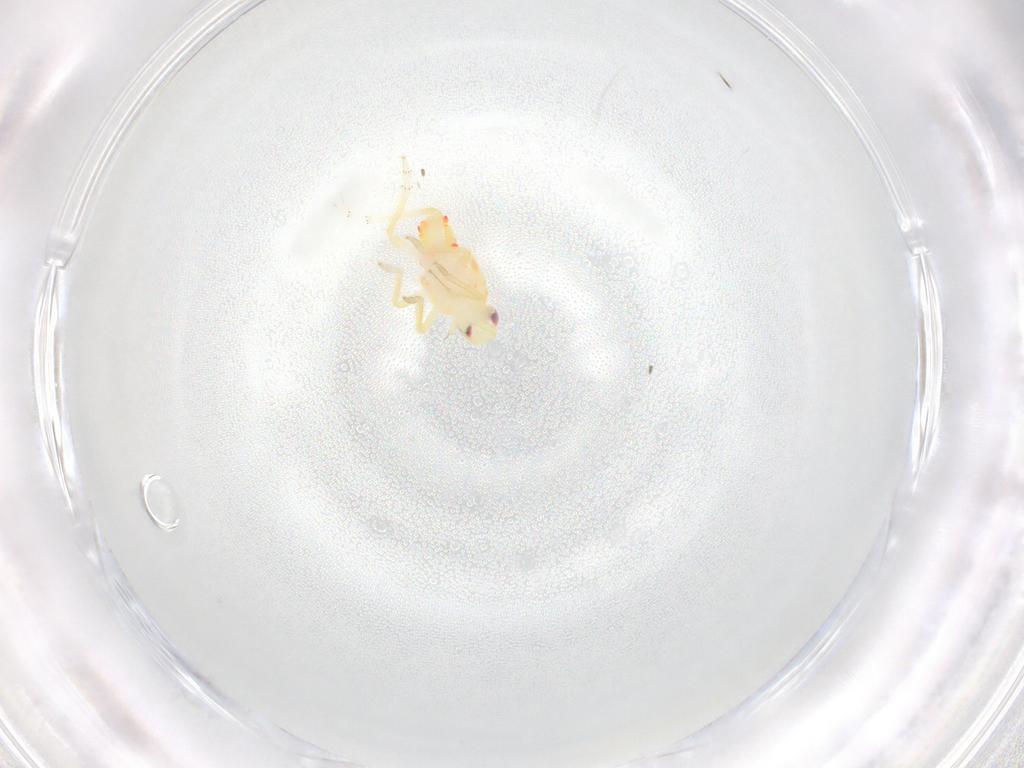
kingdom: Animalia
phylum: Arthropoda
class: Insecta
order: Hemiptera
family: Tropiduchidae
